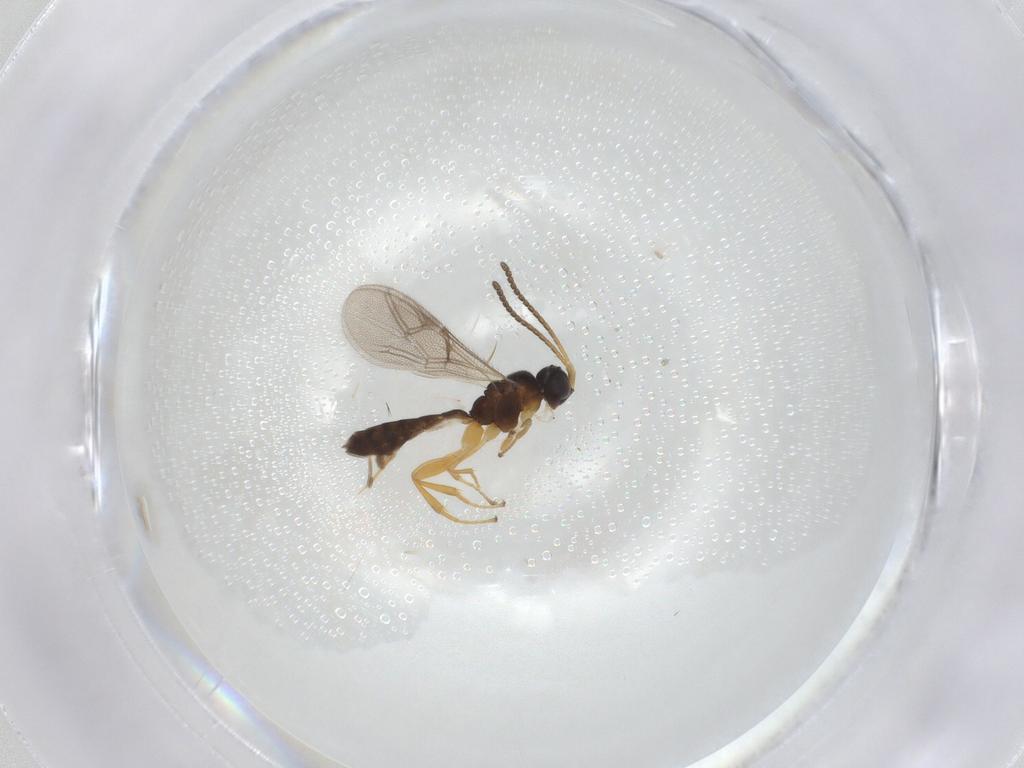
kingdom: Animalia
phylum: Arthropoda
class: Insecta
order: Hymenoptera
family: Ichneumonidae
